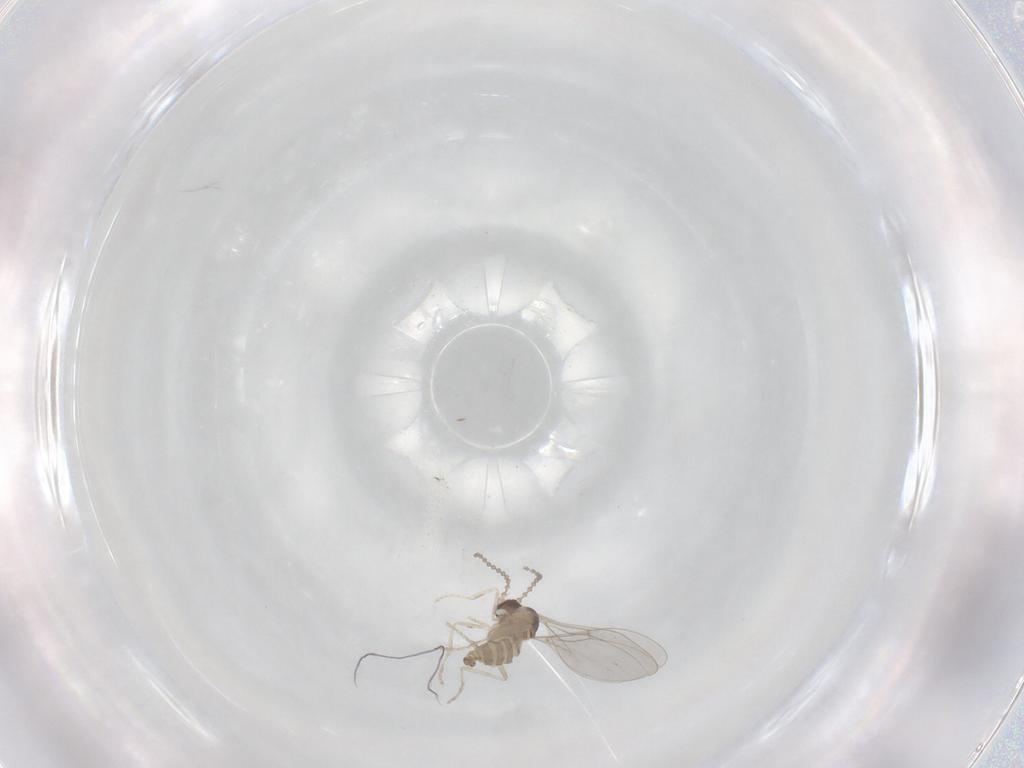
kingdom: Animalia
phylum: Arthropoda
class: Insecta
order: Diptera
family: Cecidomyiidae
